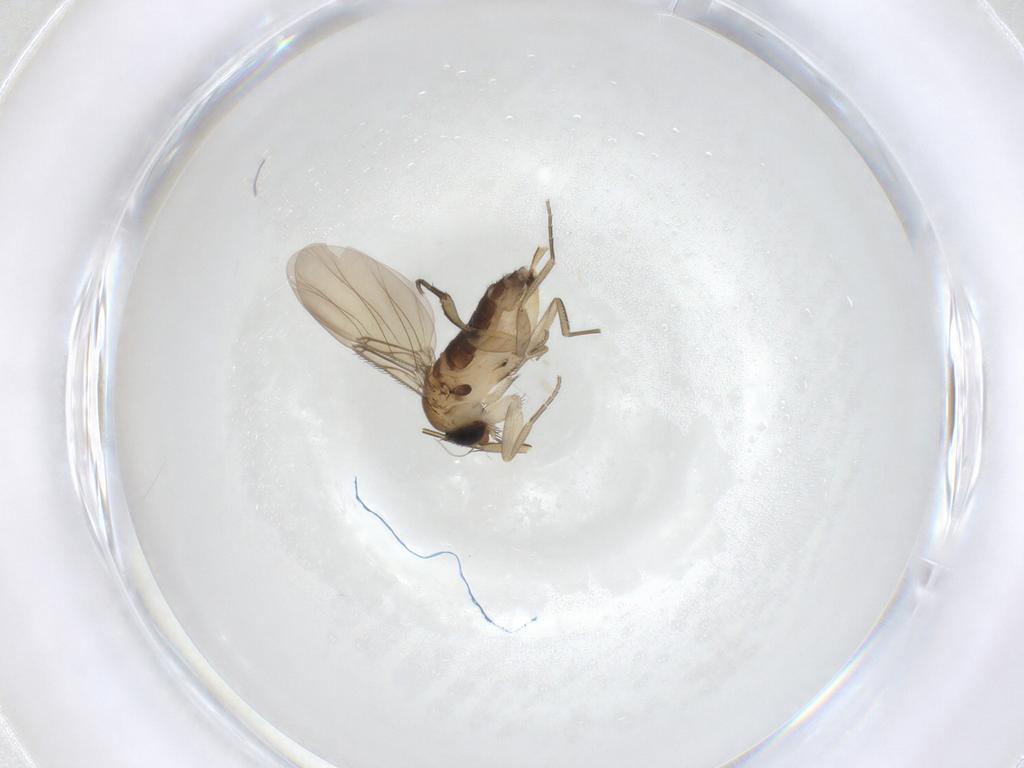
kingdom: Animalia
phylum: Arthropoda
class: Insecta
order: Diptera
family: Phoridae
